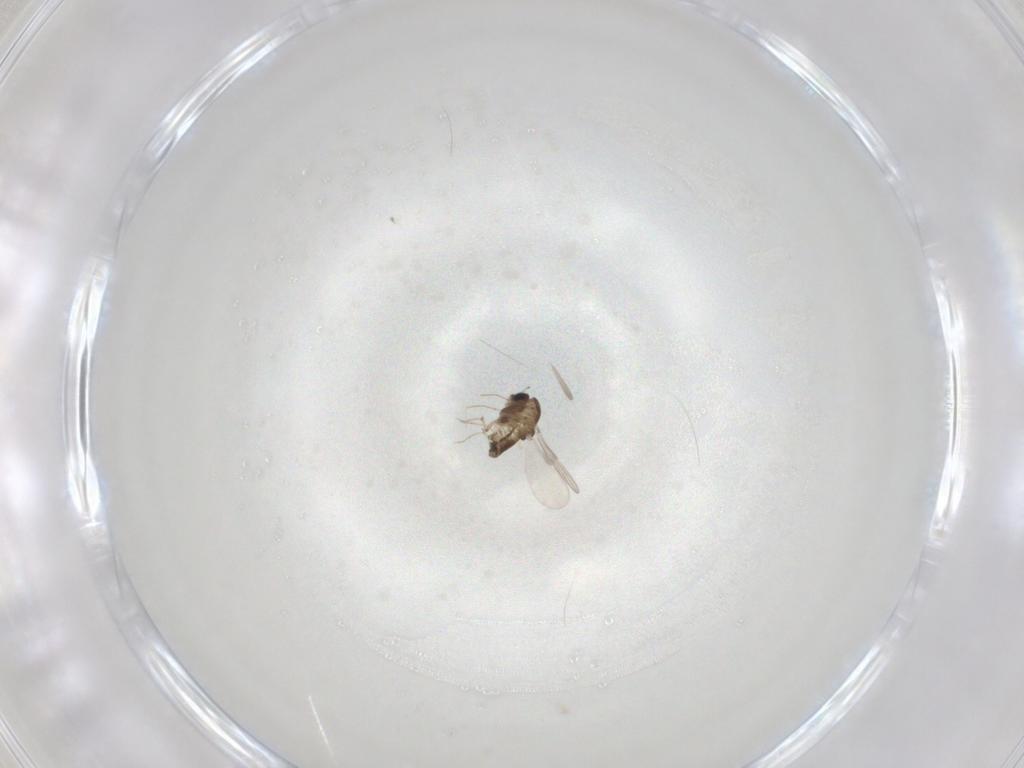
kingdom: Animalia
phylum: Arthropoda
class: Insecta
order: Diptera
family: Chironomidae
